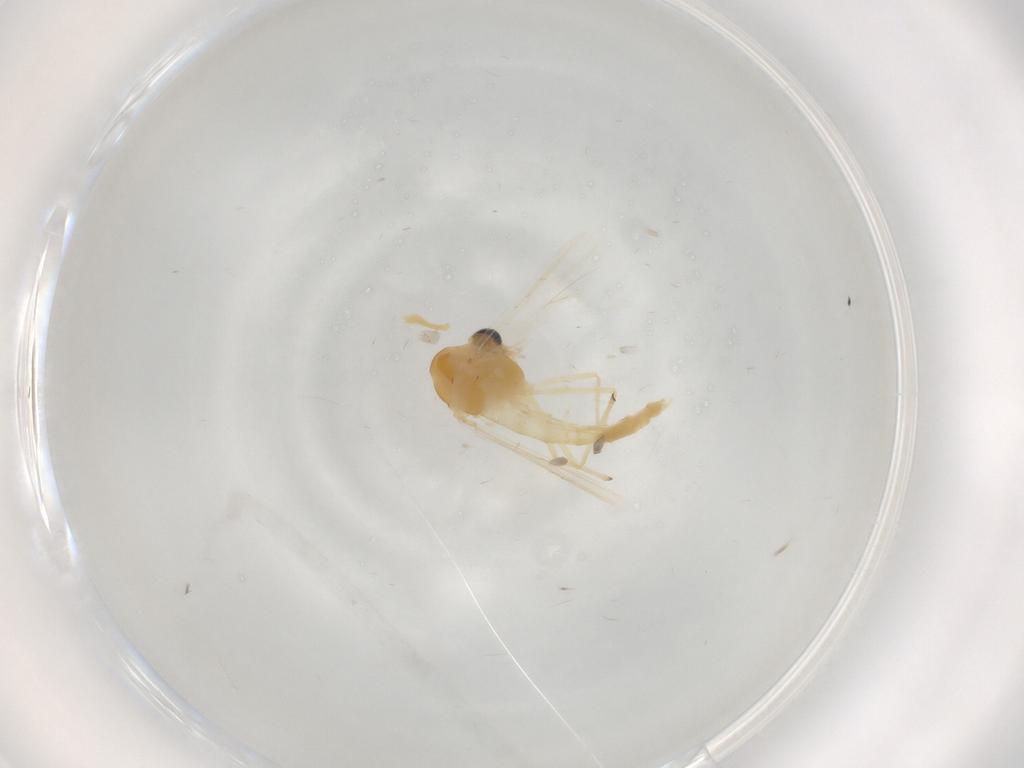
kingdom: Animalia
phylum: Arthropoda
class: Insecta
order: Diptera
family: Chironomidae
